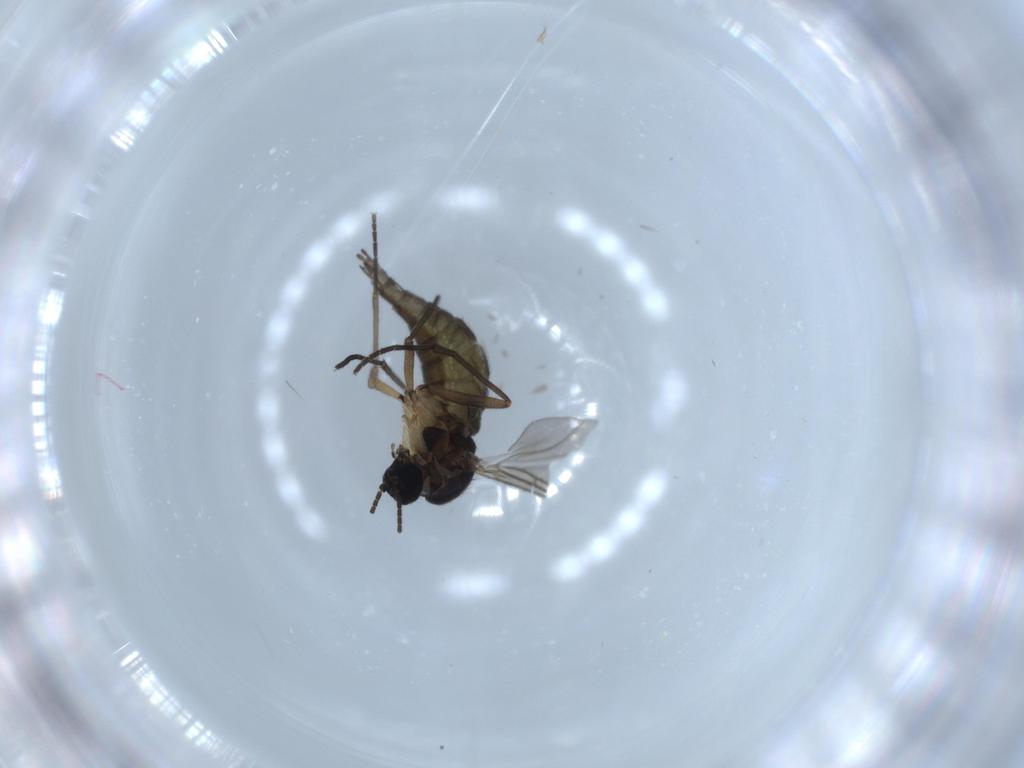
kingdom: Animalia
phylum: Arthropoda
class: Insecta
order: Diptera
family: Sciaridae
